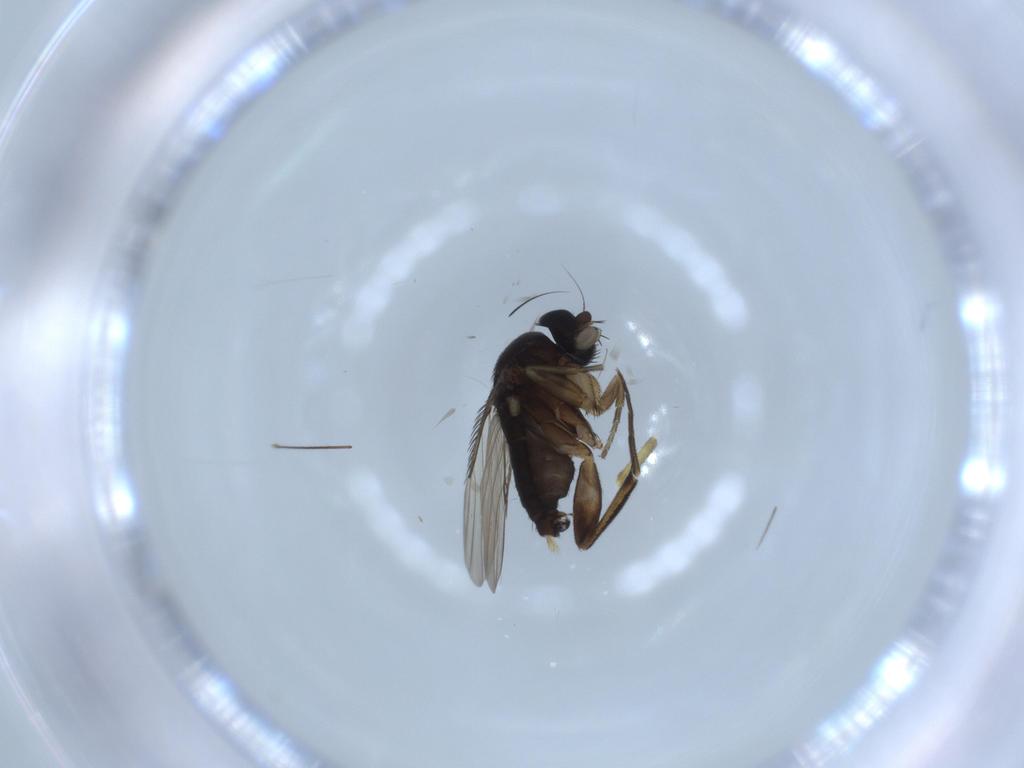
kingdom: Animalia
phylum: Arthropoda
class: Insecta
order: Diptera
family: Phoridae
